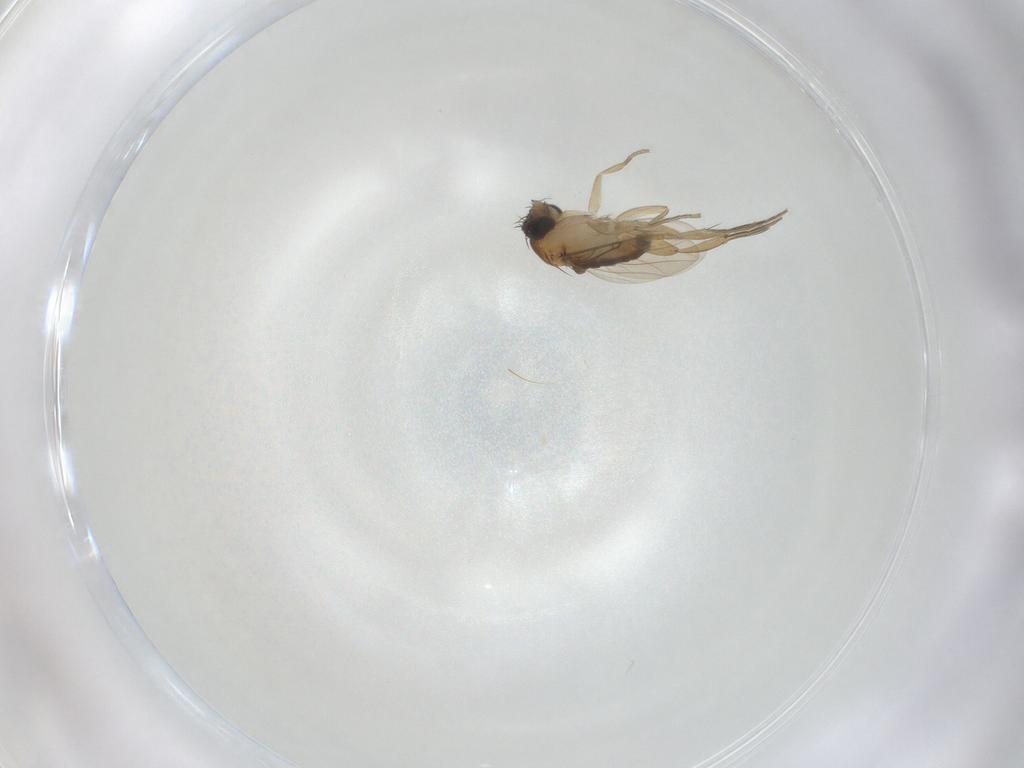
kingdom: Animalia
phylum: Arthropoda
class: Insecta
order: Diptera
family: Phoridae
